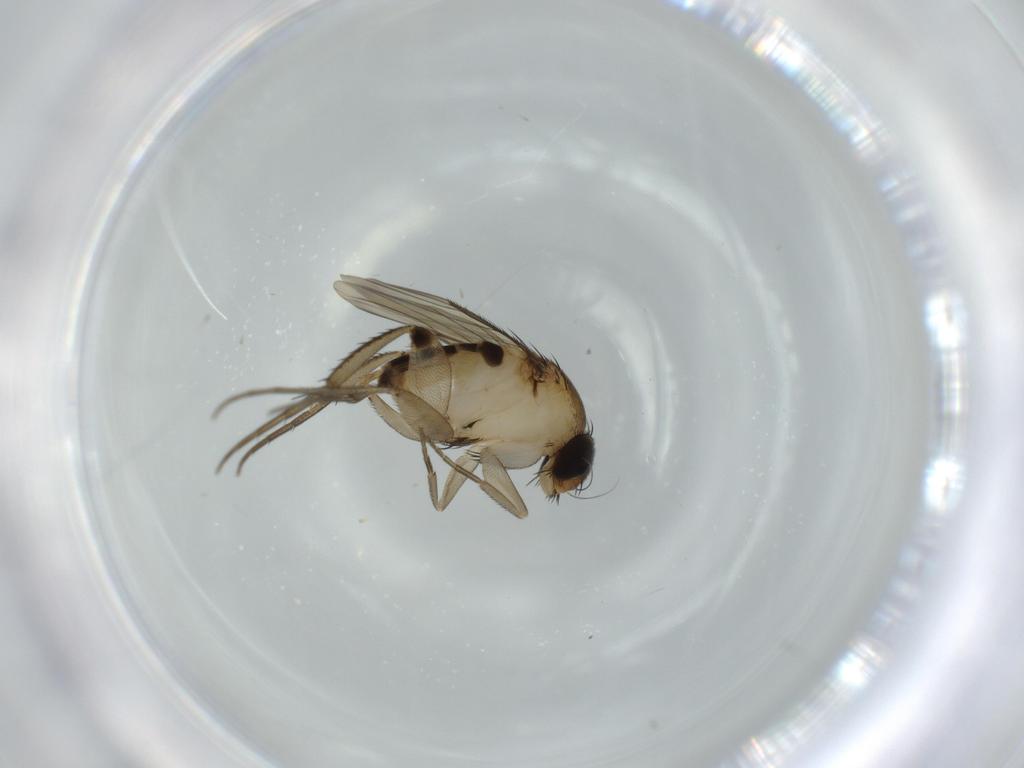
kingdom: Animalia
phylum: Arthropoda
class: Insecta
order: Diptera
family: Phoridae
